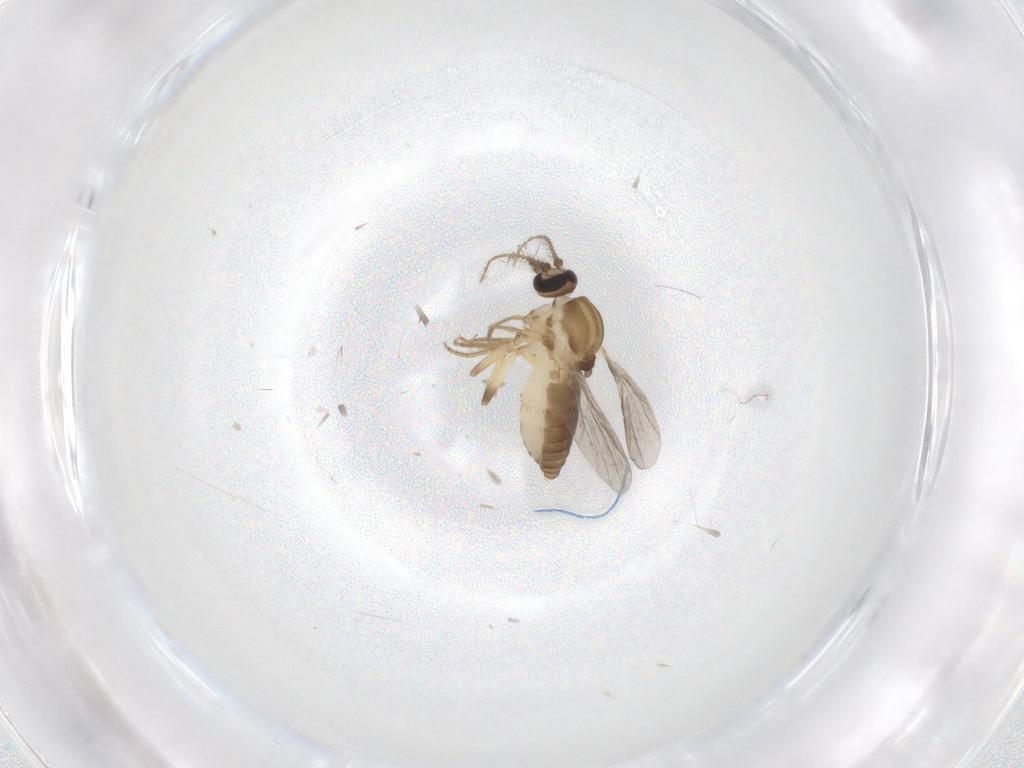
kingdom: Animalia
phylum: Arthropoda
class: Insecta
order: Diptera
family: Ceratopogonidae
